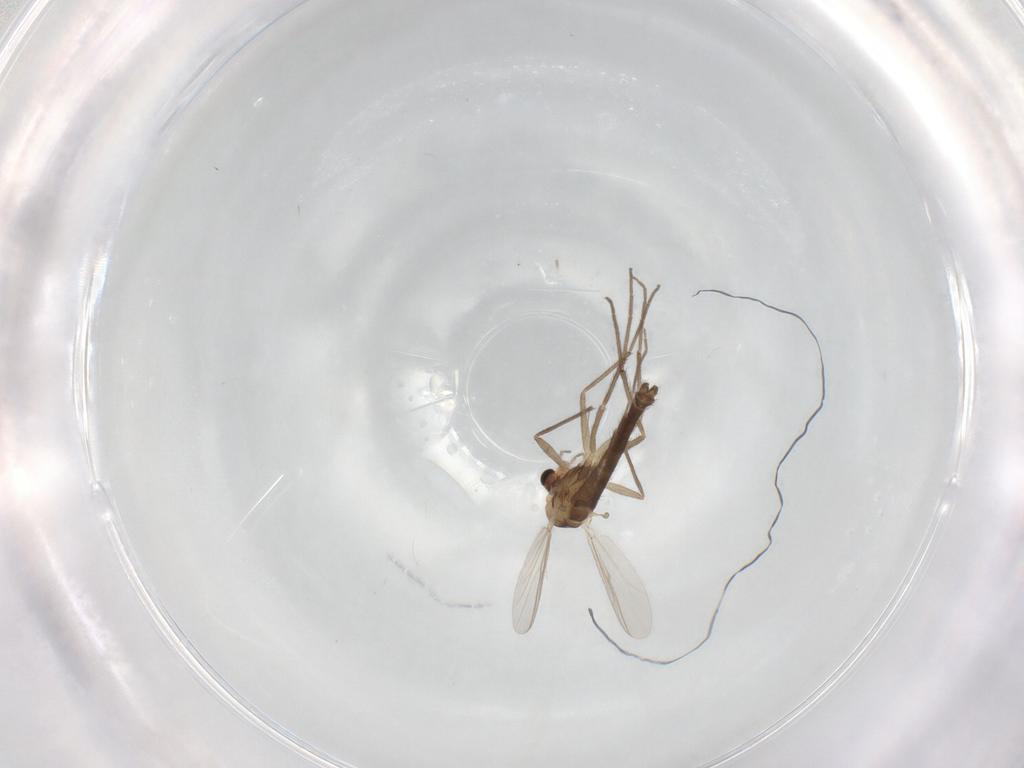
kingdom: Animalia
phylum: Arthropoda
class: Insecta
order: Diptera
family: Chironomidae
